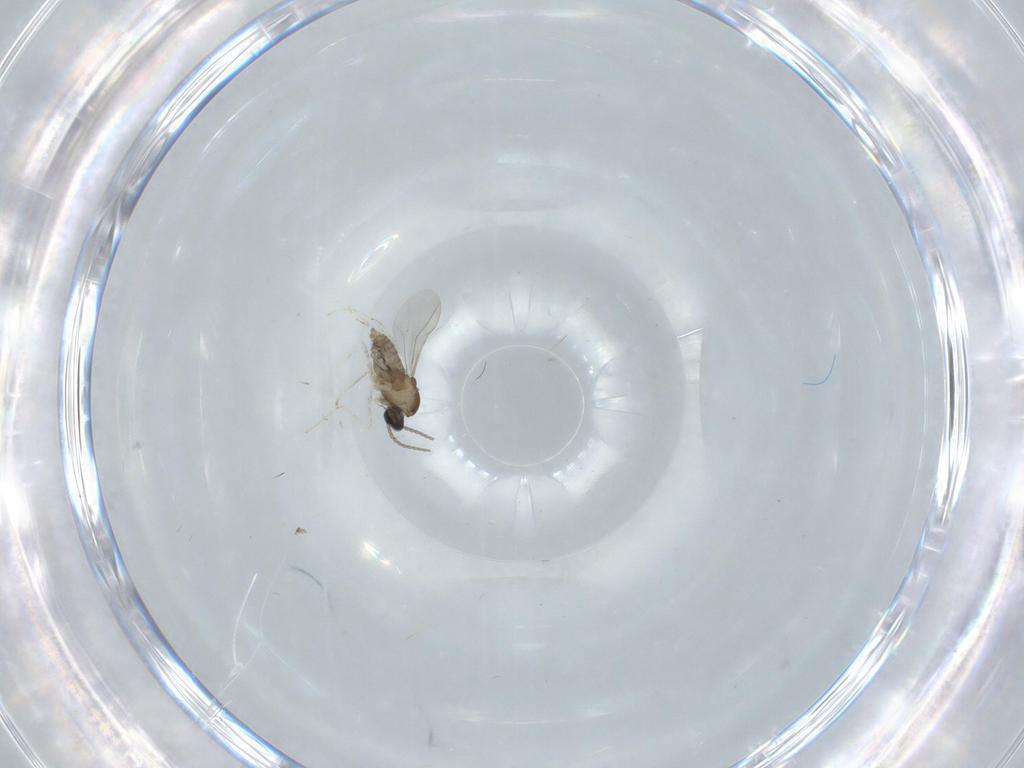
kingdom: Animalia
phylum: Arthropoda
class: Insecta
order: Diptera
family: Cecidomyiidae
